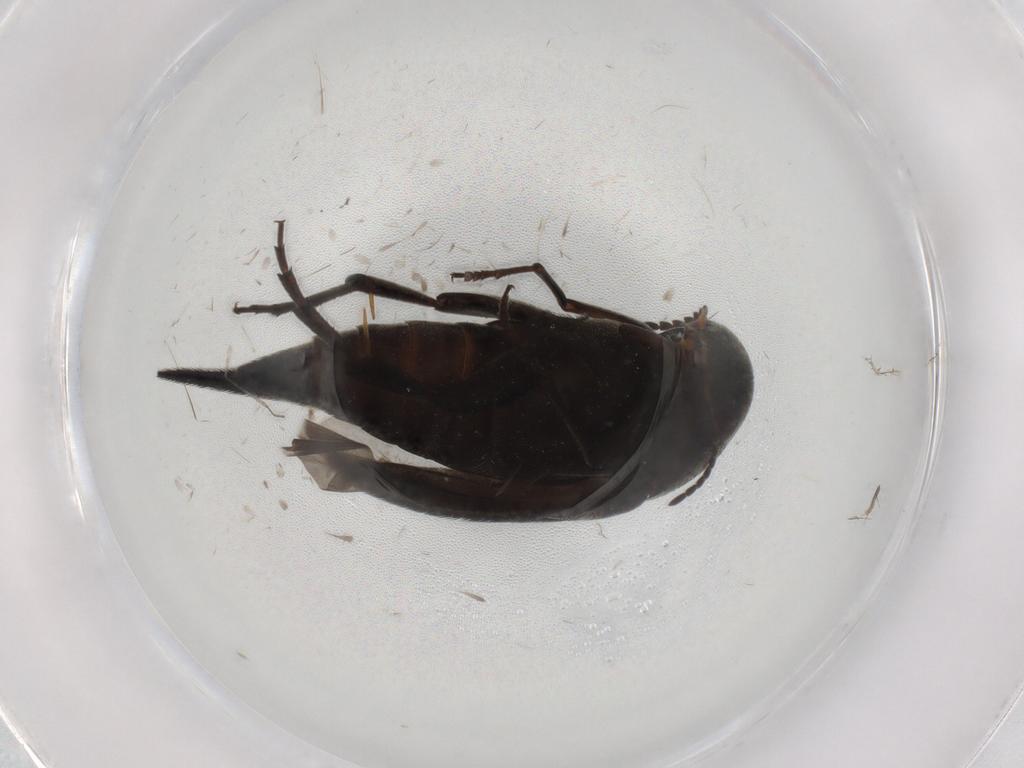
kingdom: Animalia
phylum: Arthropoda
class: Insecta
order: Coleoptera
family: Mordellidae
